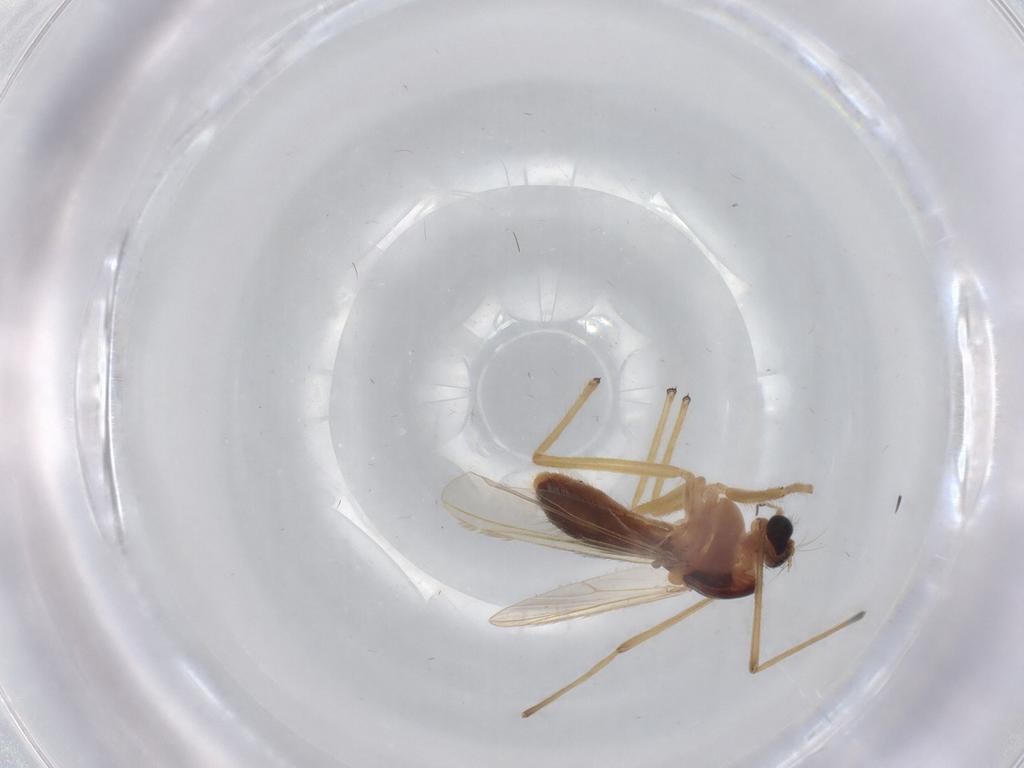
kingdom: Animalia
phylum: Arthropoda
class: Insecta
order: Diptera
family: Chironomidae
